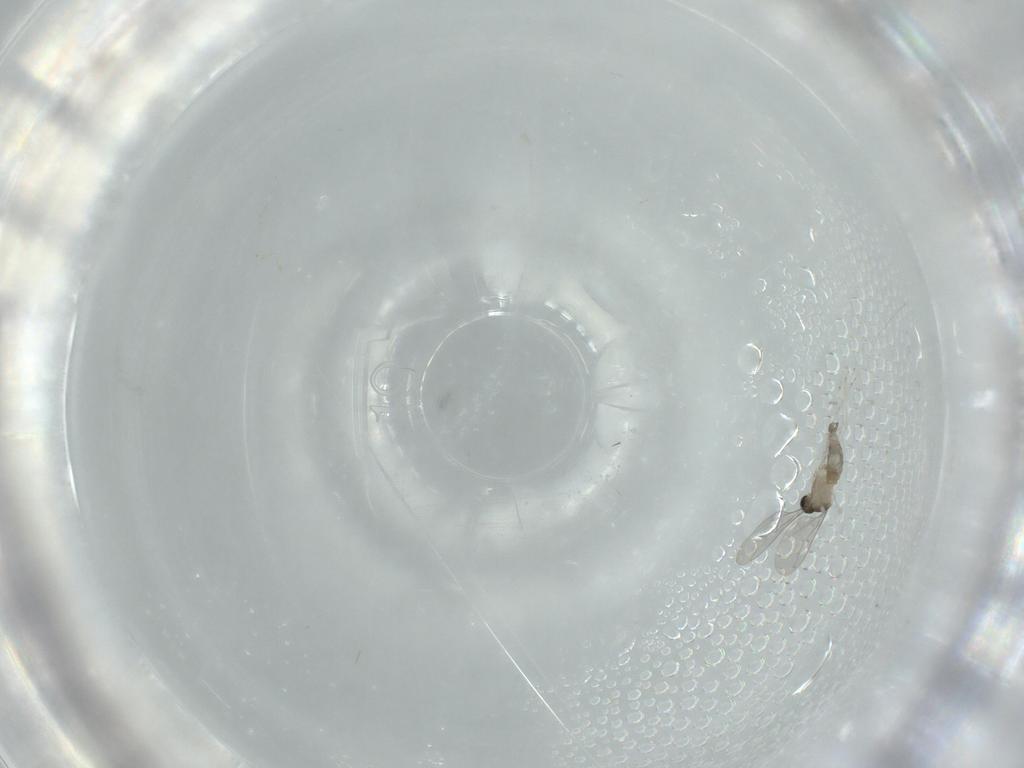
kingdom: Animalia
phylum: Arthropoda
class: Insecta
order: Diptera
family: Cecidomyiidae
